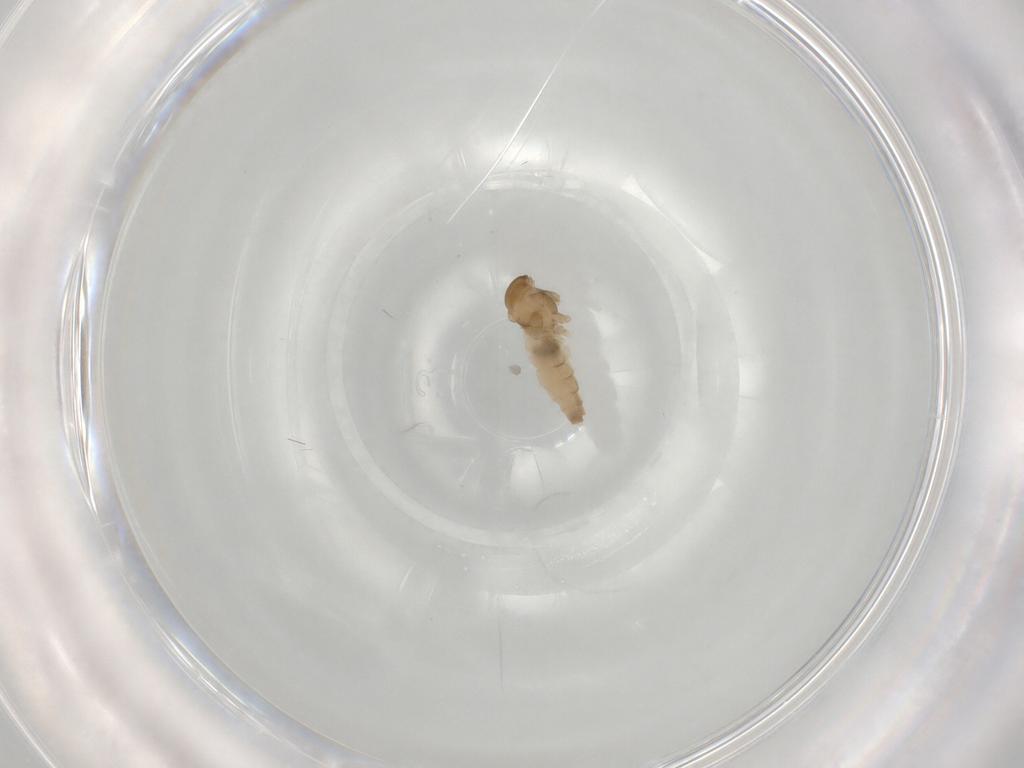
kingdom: Animalia
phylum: Arthropoda
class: Insecta
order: Diptera
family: Cecidomyiidae
